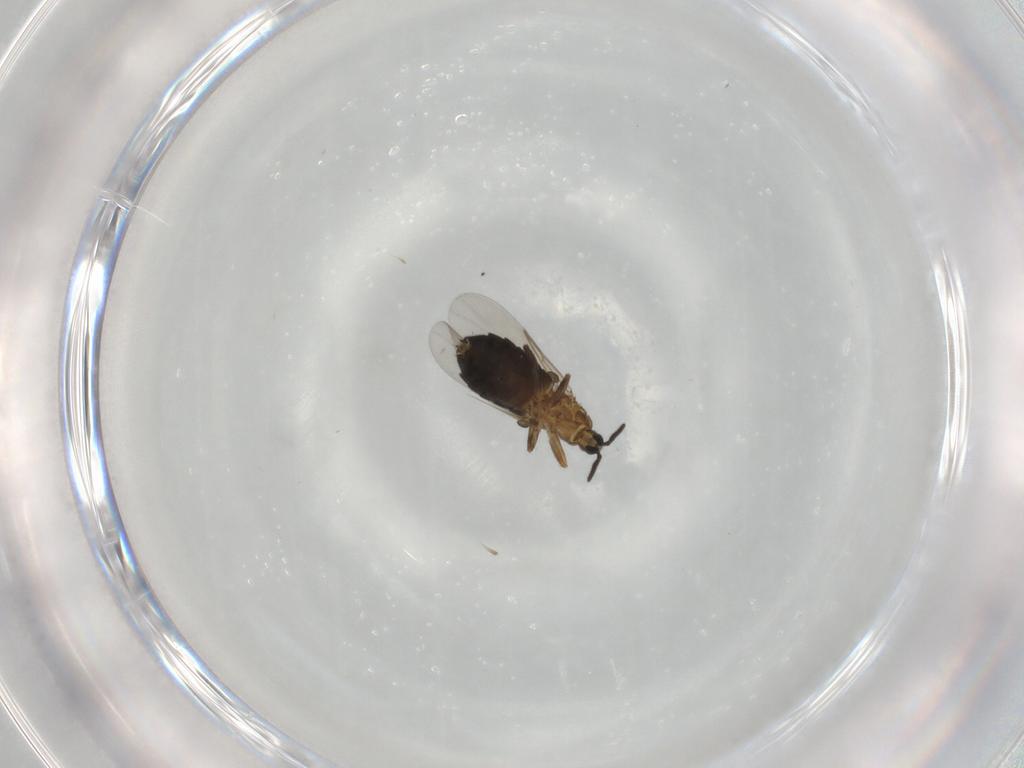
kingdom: Animalia
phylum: Arthropoda
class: Insecta
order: Diptera
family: Scatopsidae
